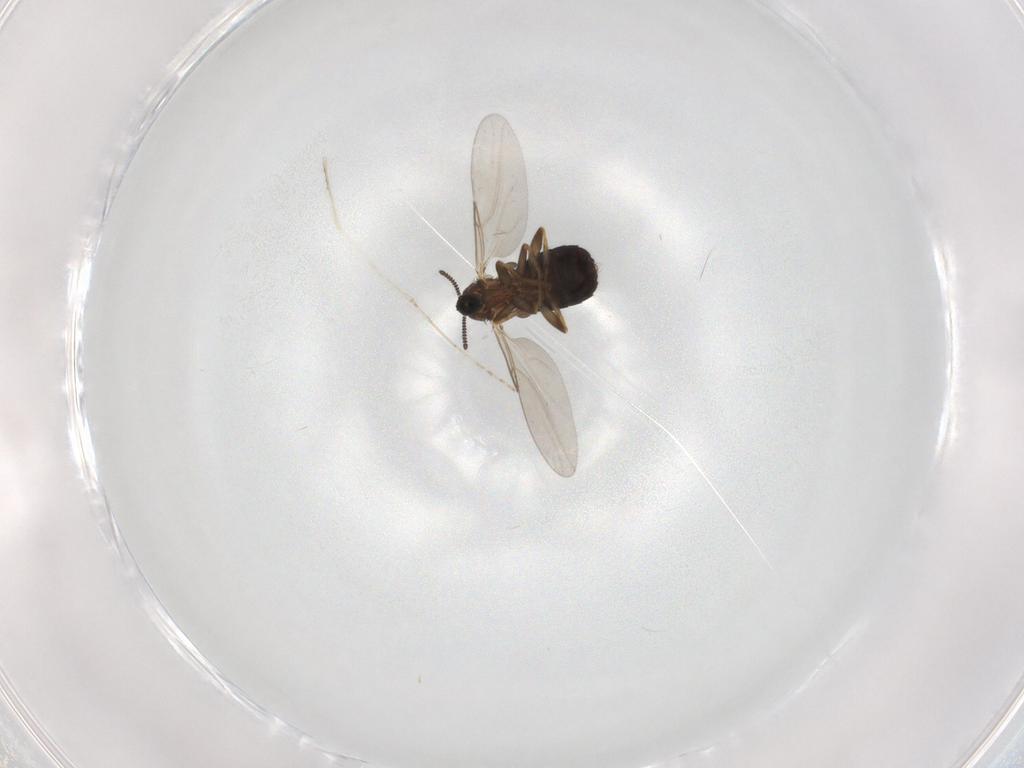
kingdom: Animalia
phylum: Arthropoda
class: Insecta
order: Diptera
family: Scatopsidae
